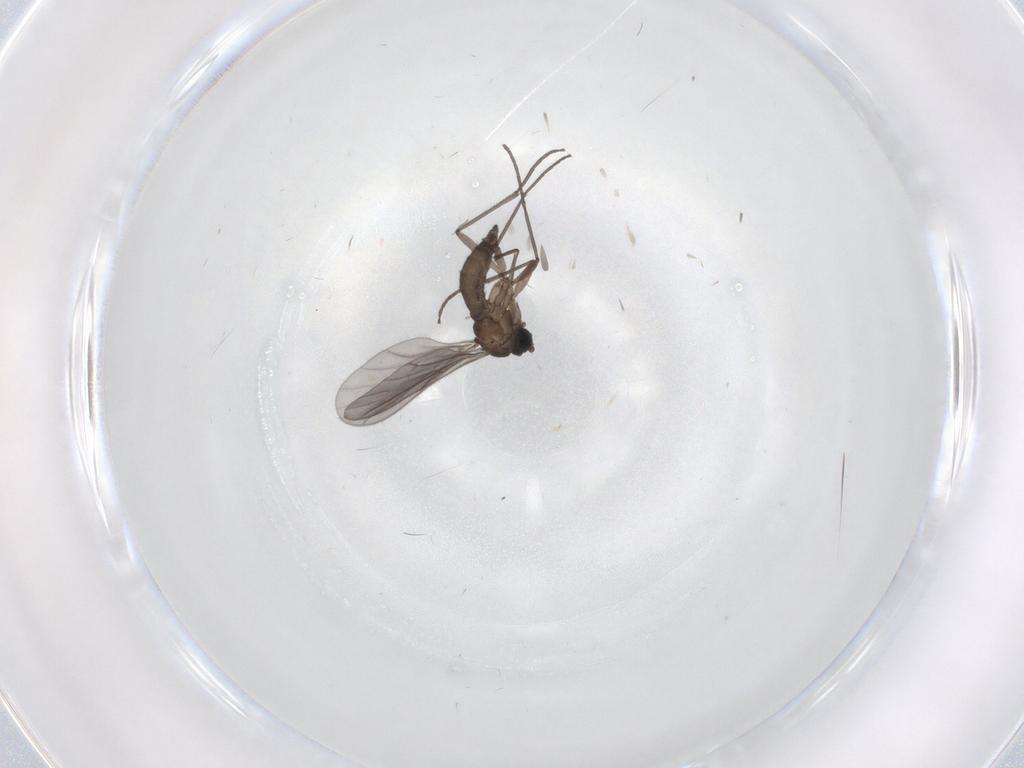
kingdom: Animalia
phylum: Arthropoda
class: Insecta
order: Diptera
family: Sciaridae
